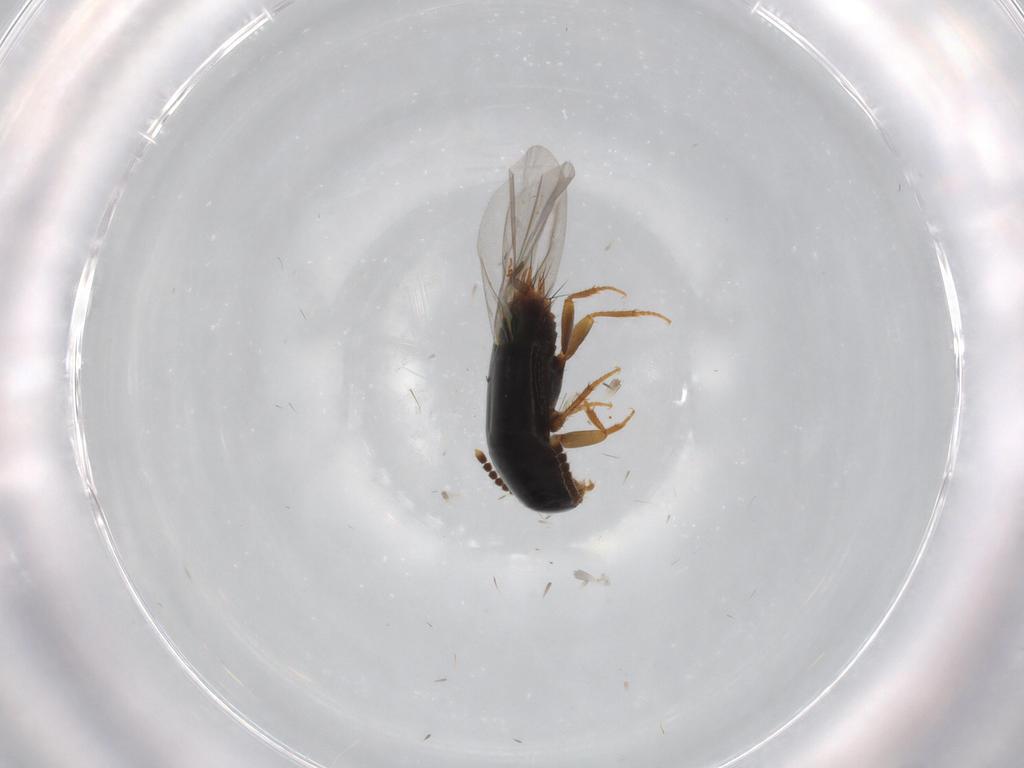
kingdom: Animalia
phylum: Arthropoda
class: Insecta
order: Coleoptera
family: Staphylinidae
